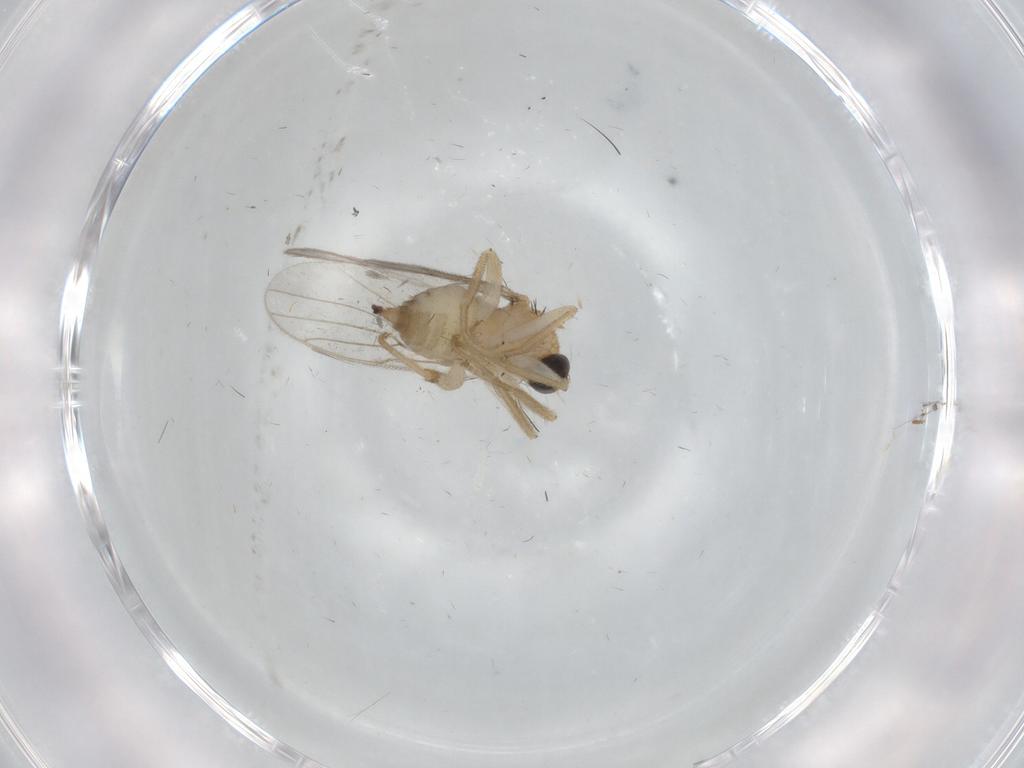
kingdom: Animalia
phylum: Arthropoda
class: Insecta
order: Diptera
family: Hybotidae
